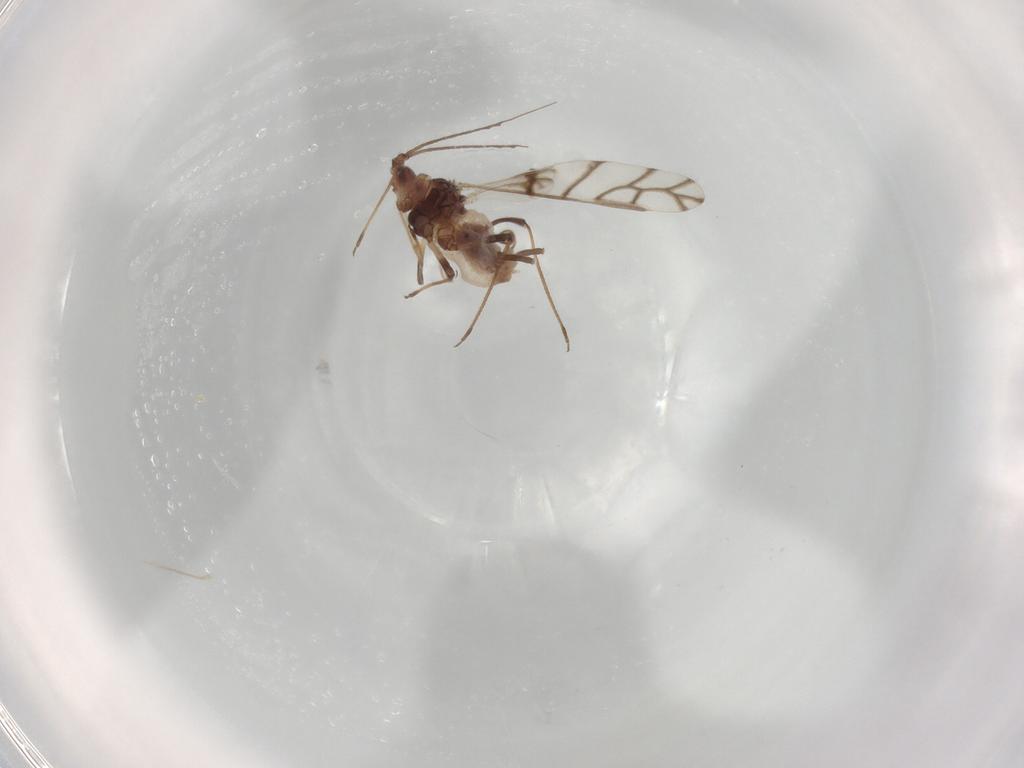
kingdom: Animalia
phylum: Arthropoda
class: Insecta
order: Hemiptera
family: Aphididae
